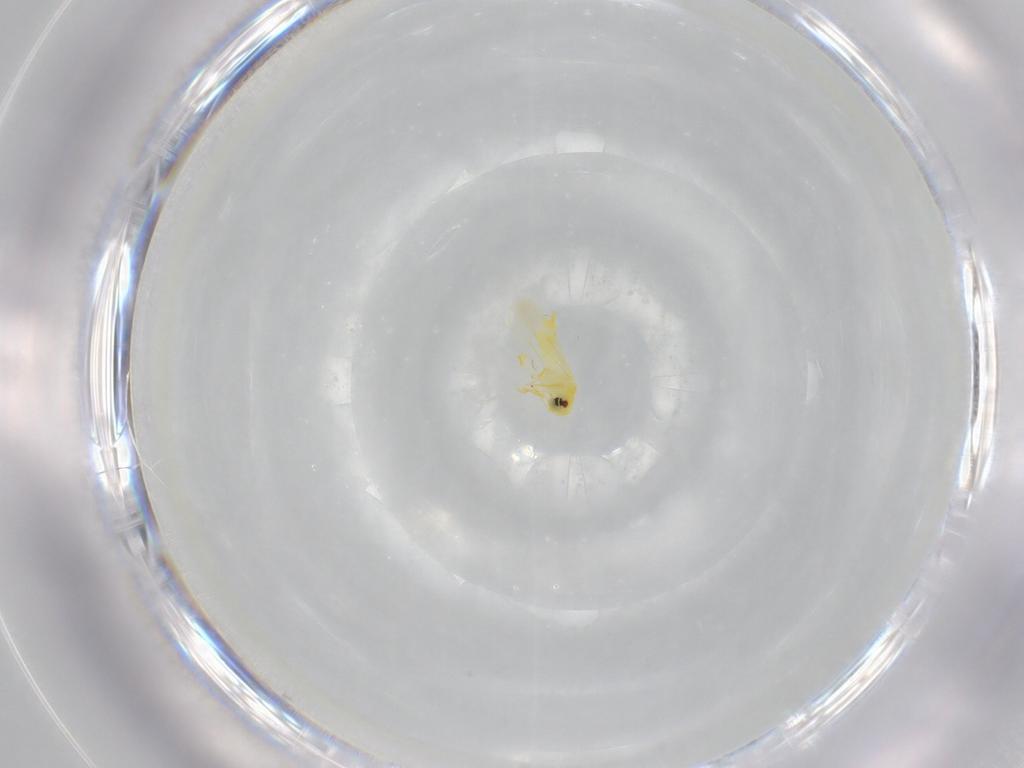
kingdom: Animalia
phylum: Arthropoda
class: Insecta
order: Hemiptera
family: Aleyrodidae
